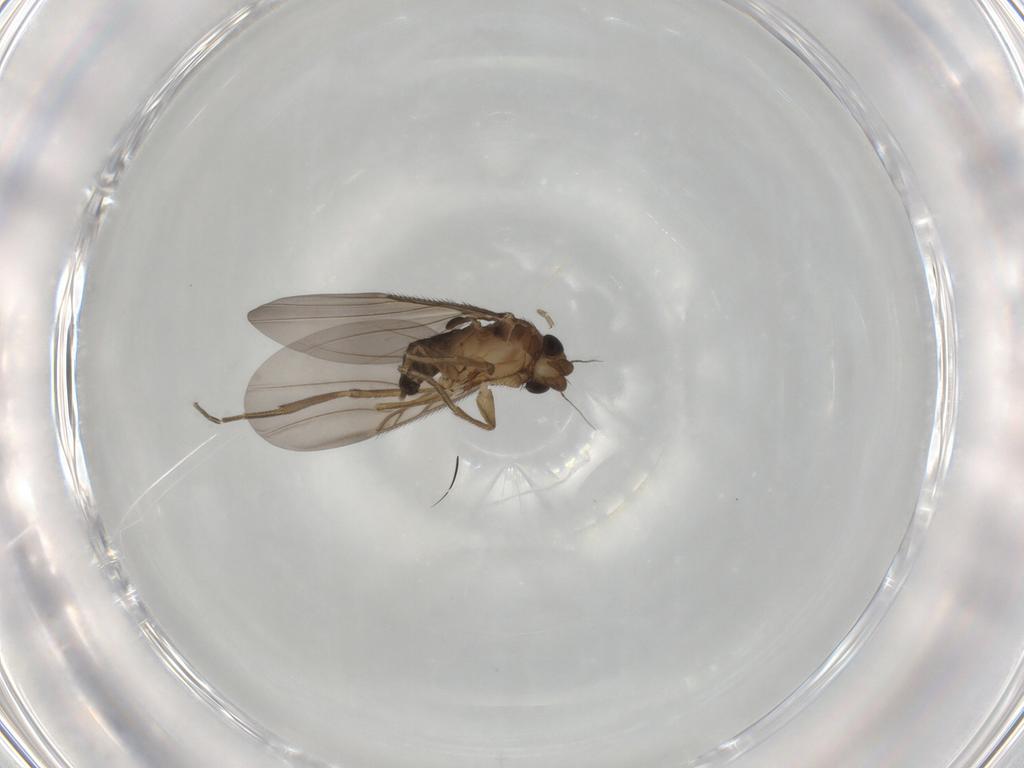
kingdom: Animalia
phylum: Arthropoda
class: Insecta
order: Diptera
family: Phoridae
